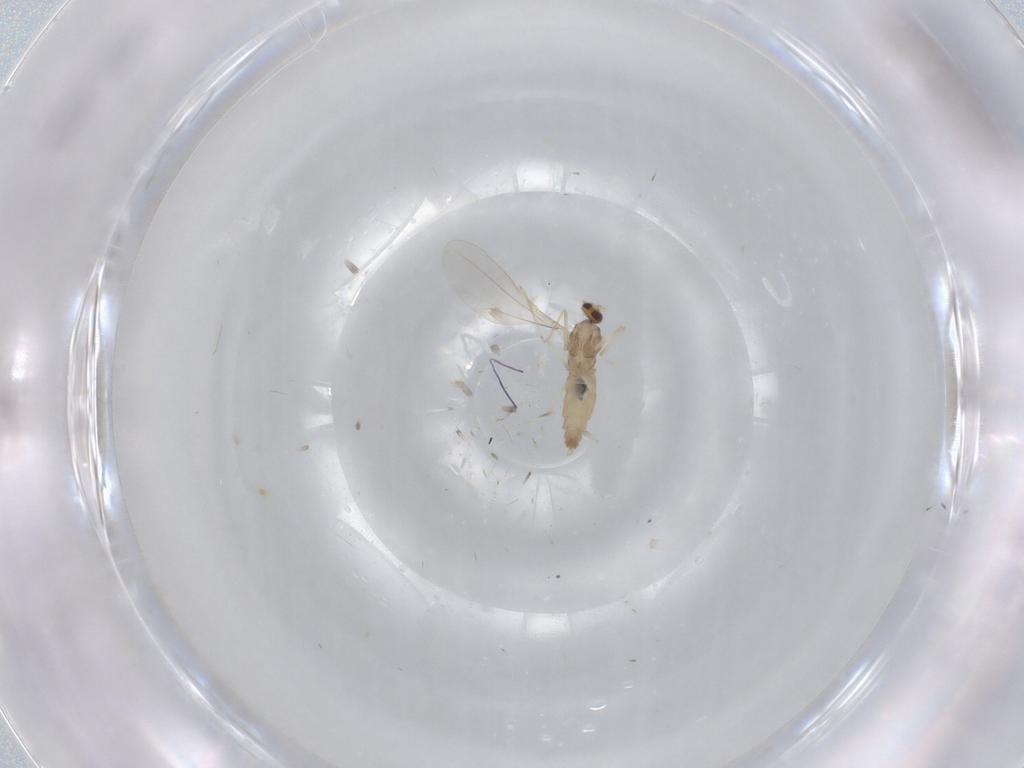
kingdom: Animalia
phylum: Arthropoda
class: Insecta
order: Diptera
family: Cecidomyiidae
